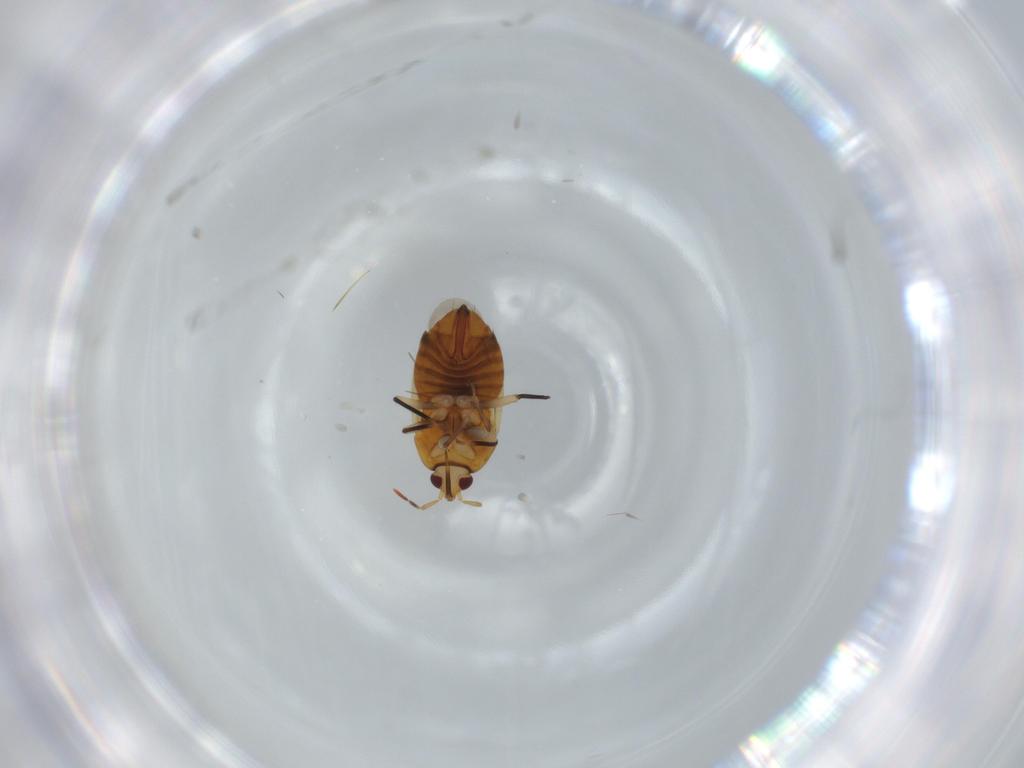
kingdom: Animalia
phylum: Arthropoda
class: Insecta
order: Hemiptera
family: Anthocoridae
